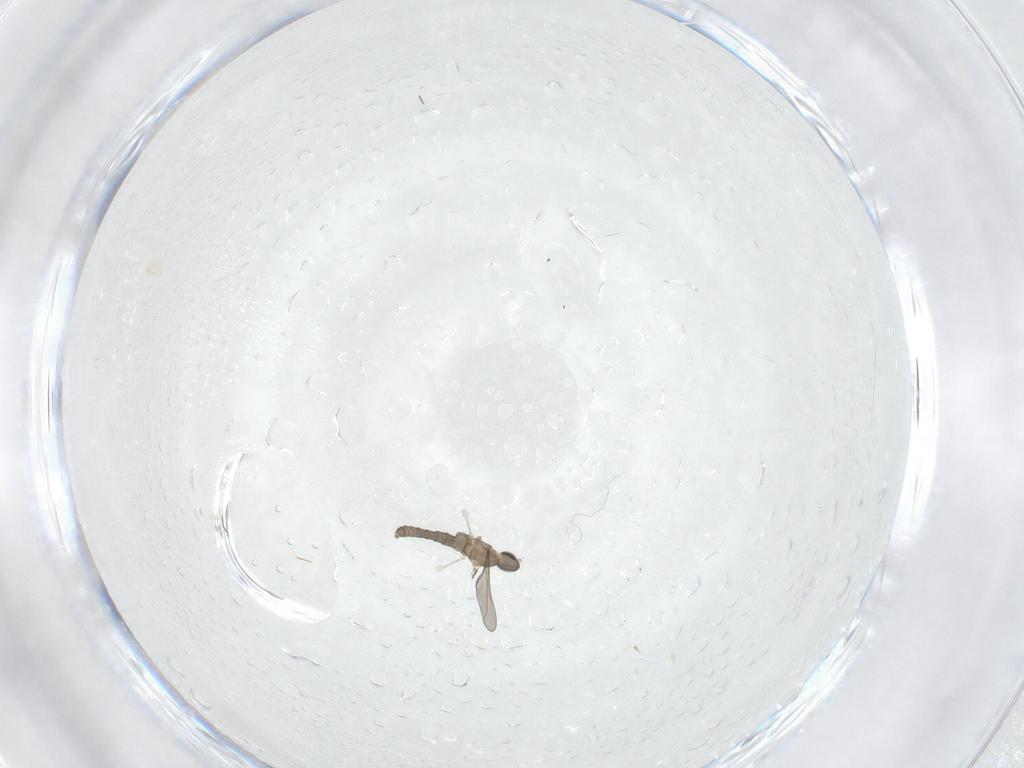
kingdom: Animalia
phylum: Arthropoda
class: Insecta
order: Diptera
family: Cecidomyiidae
